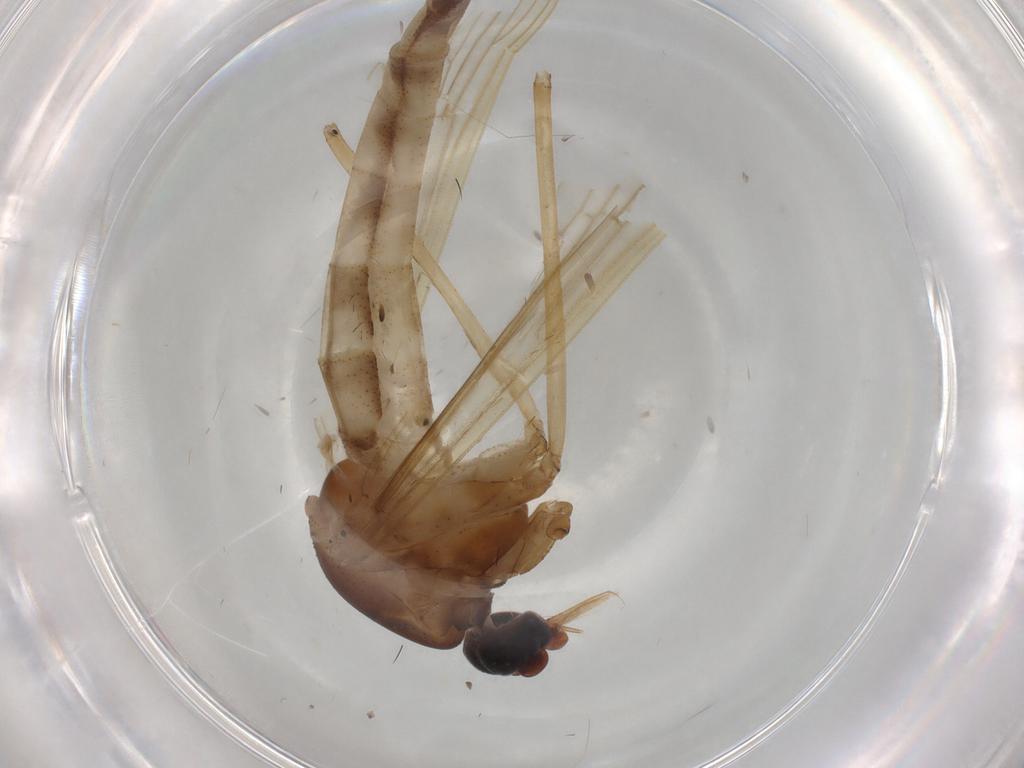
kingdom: Animalia
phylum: Arthropoda
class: Insecta
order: Diptera
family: Culicidae
